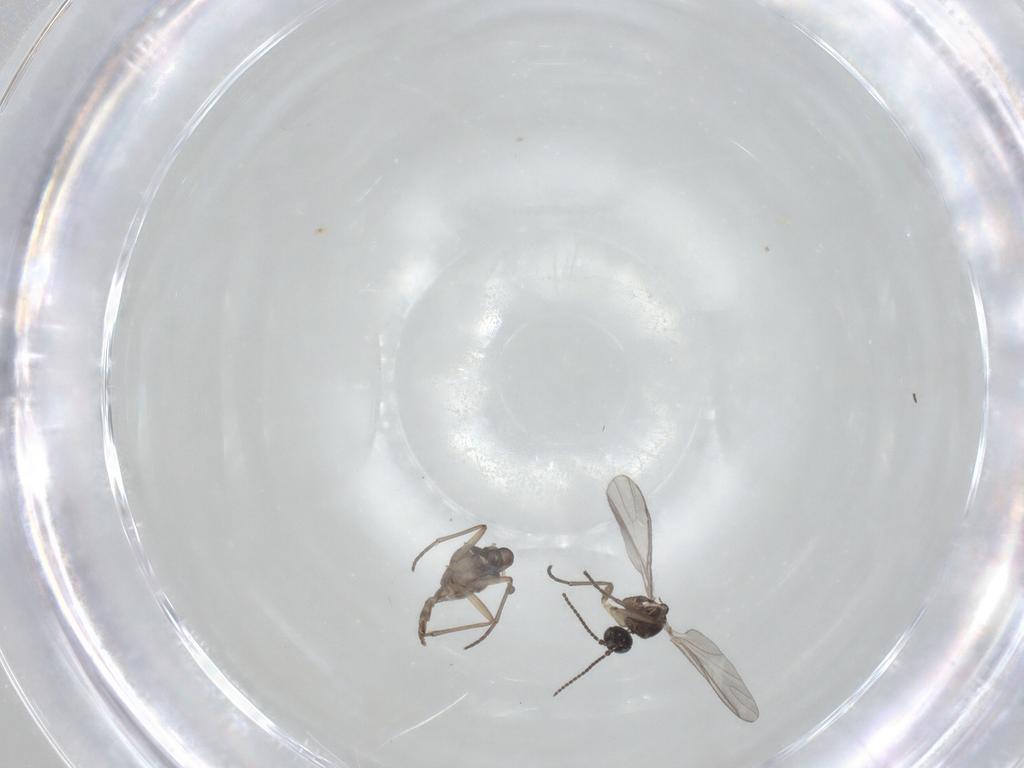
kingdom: Animalia
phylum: Arthropoda
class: Insecta
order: Diptera
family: Sciaridae
